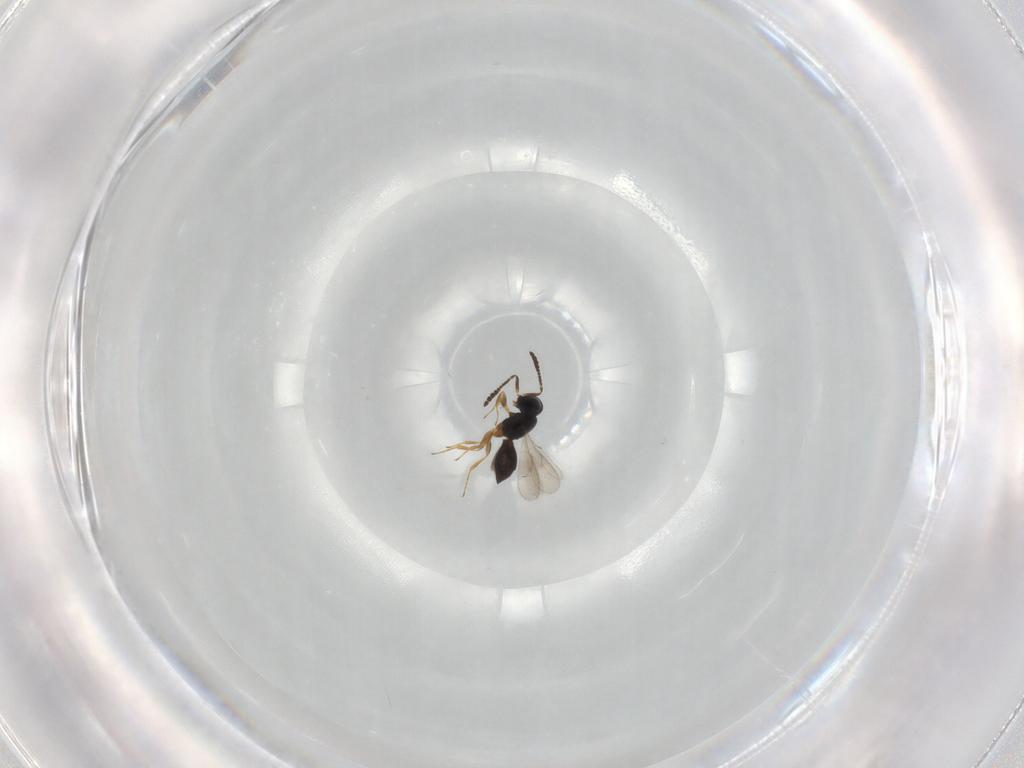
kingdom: Animalia
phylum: Arthropoda
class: Insecta
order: Hymenoptera
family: Scelionidae
